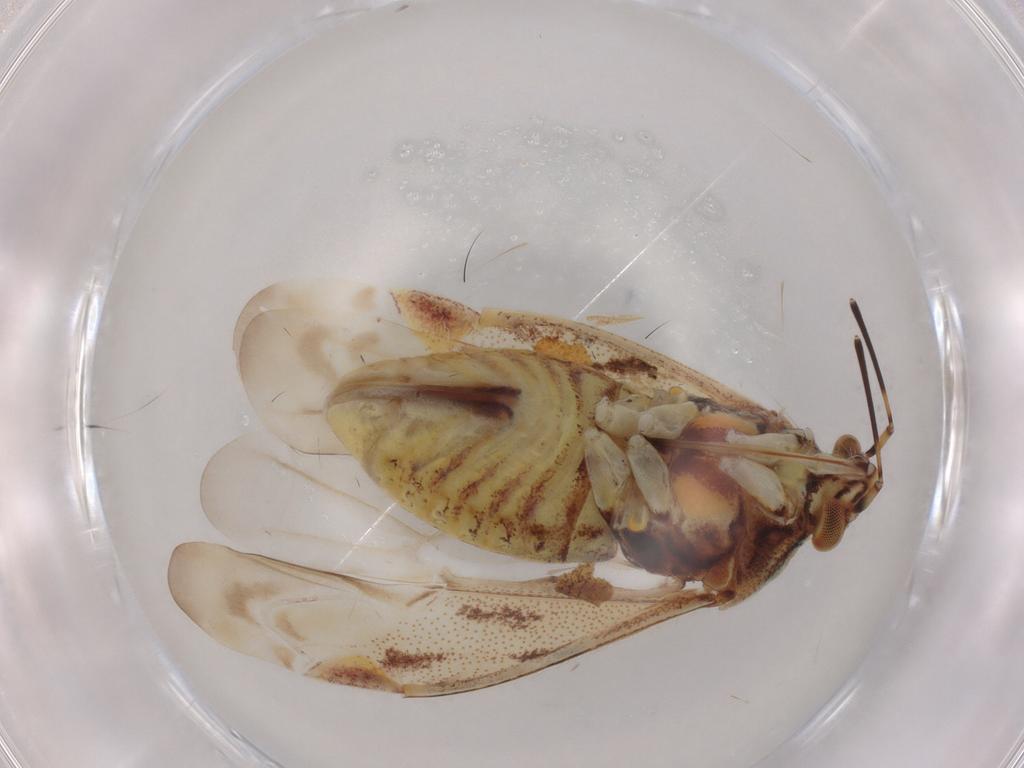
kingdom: Animalia
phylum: Arthropoda
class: Insecta
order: Hemiptera
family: Miridae
